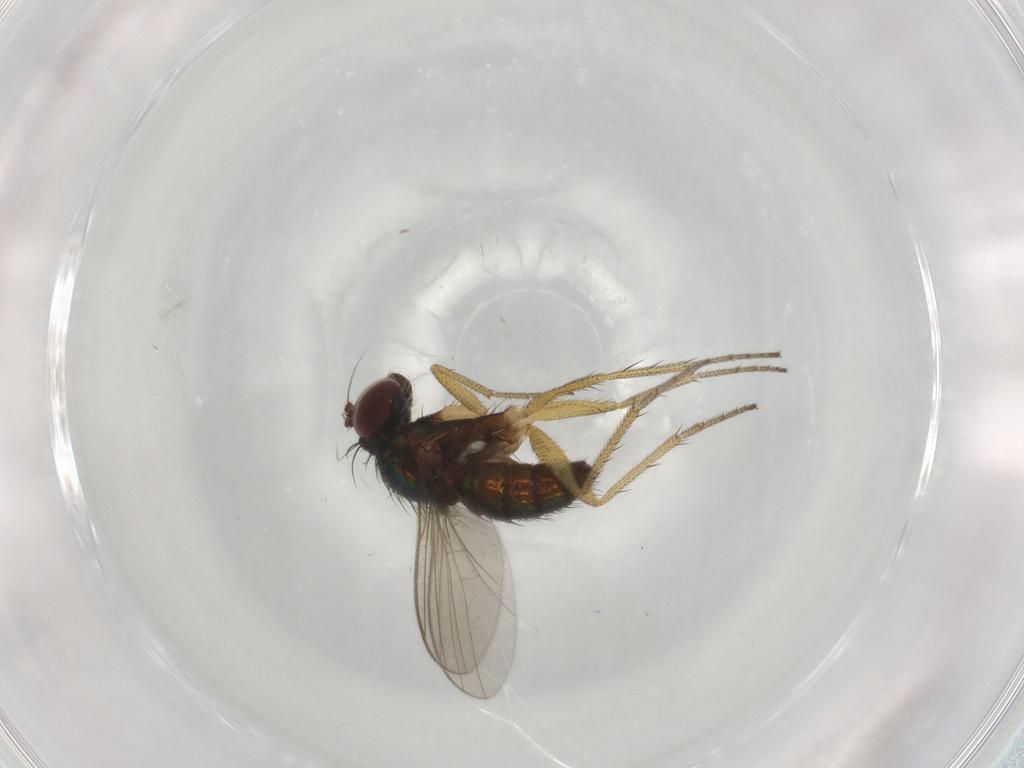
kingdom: Animalia
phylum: Arthropoda
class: Insecta
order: Diptera
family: Dolichopodidae
